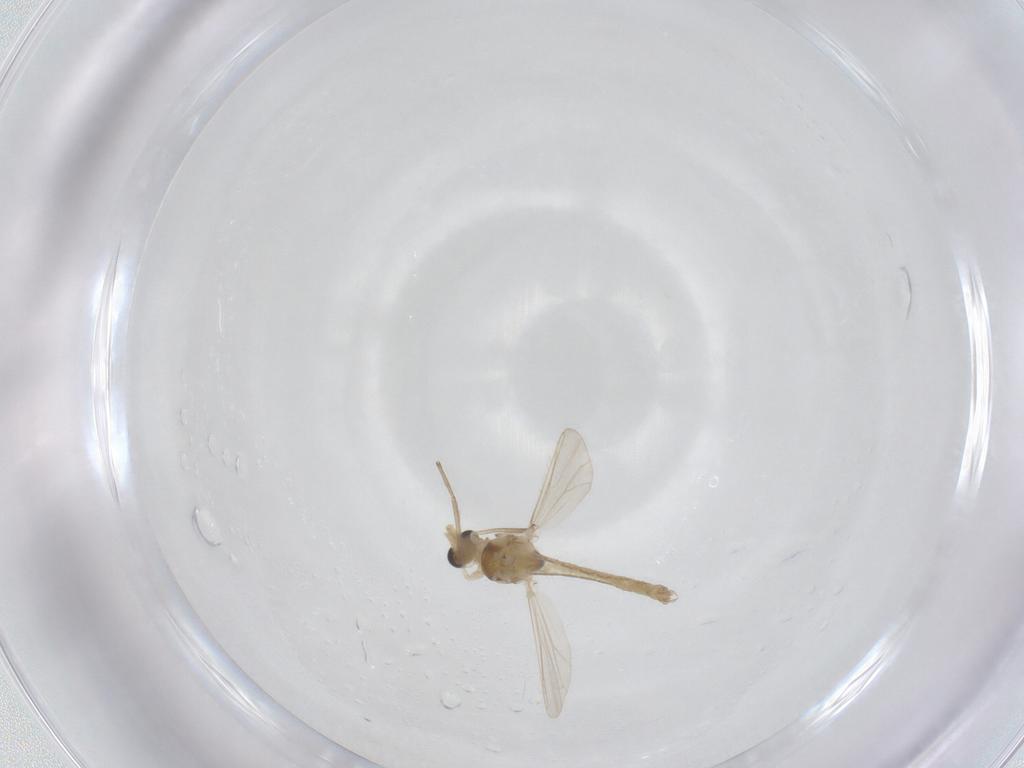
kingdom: Animalia
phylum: Arthropoda
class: Insecta
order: Diptera
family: Chironomidae
